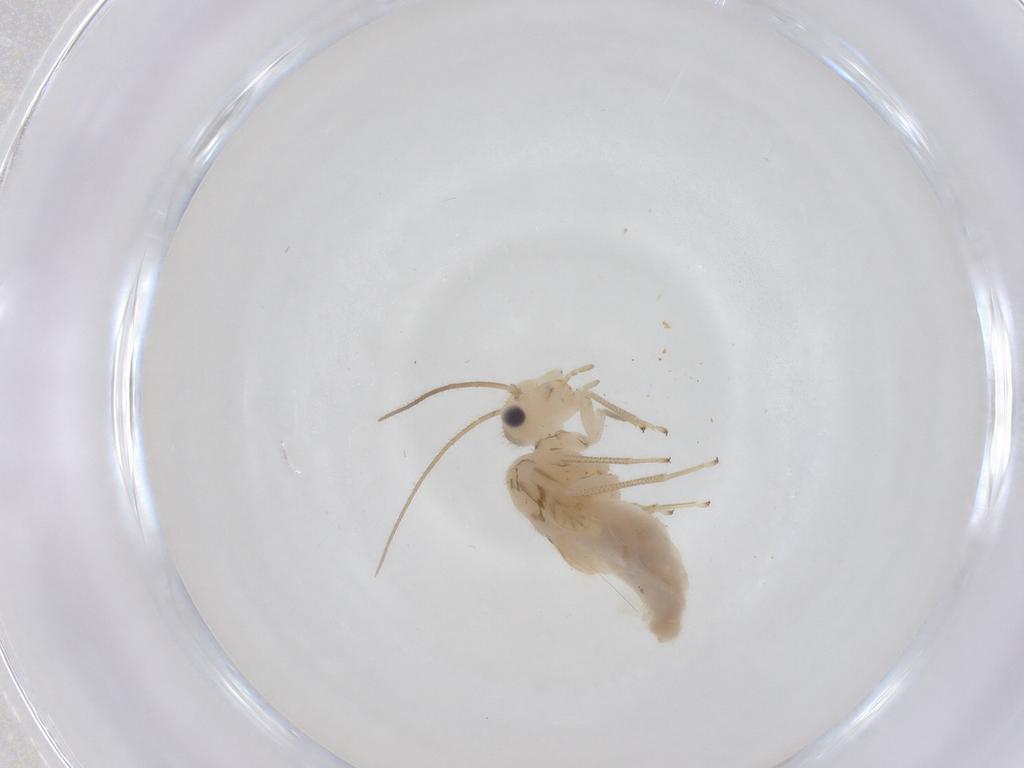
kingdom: Animalia
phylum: Arthropoda
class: Insecta
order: Psocodea
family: Caeciliusidae
